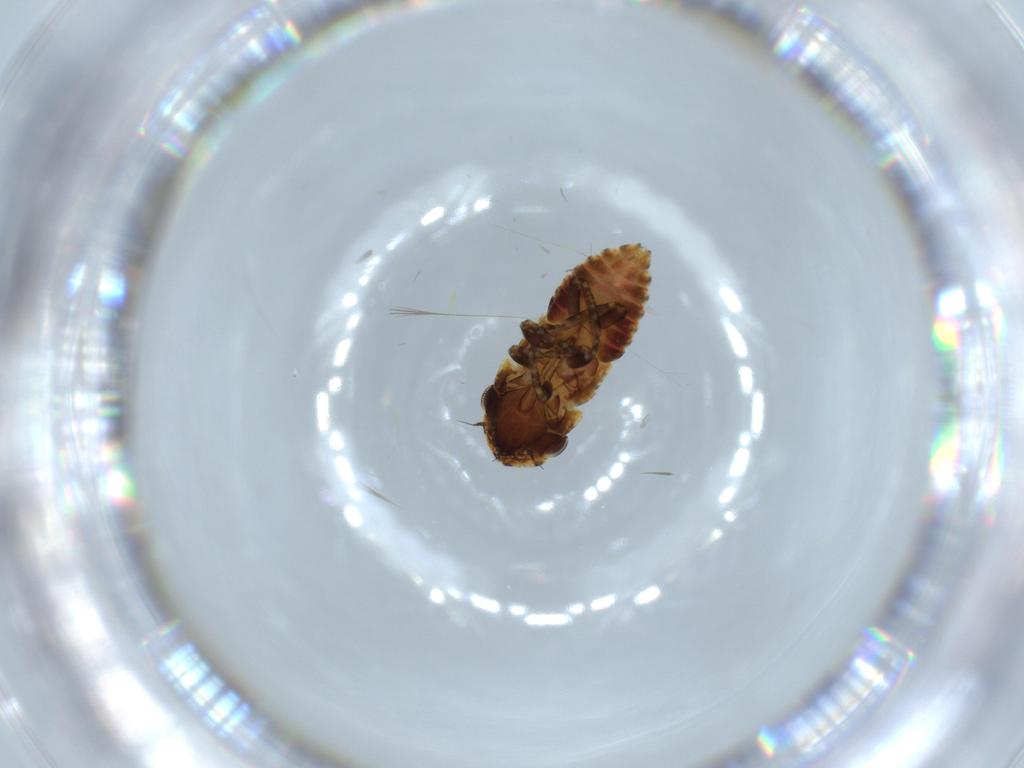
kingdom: Animalia
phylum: Arthropoda
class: Insecta
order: Hemiptera
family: Cicadellidae
